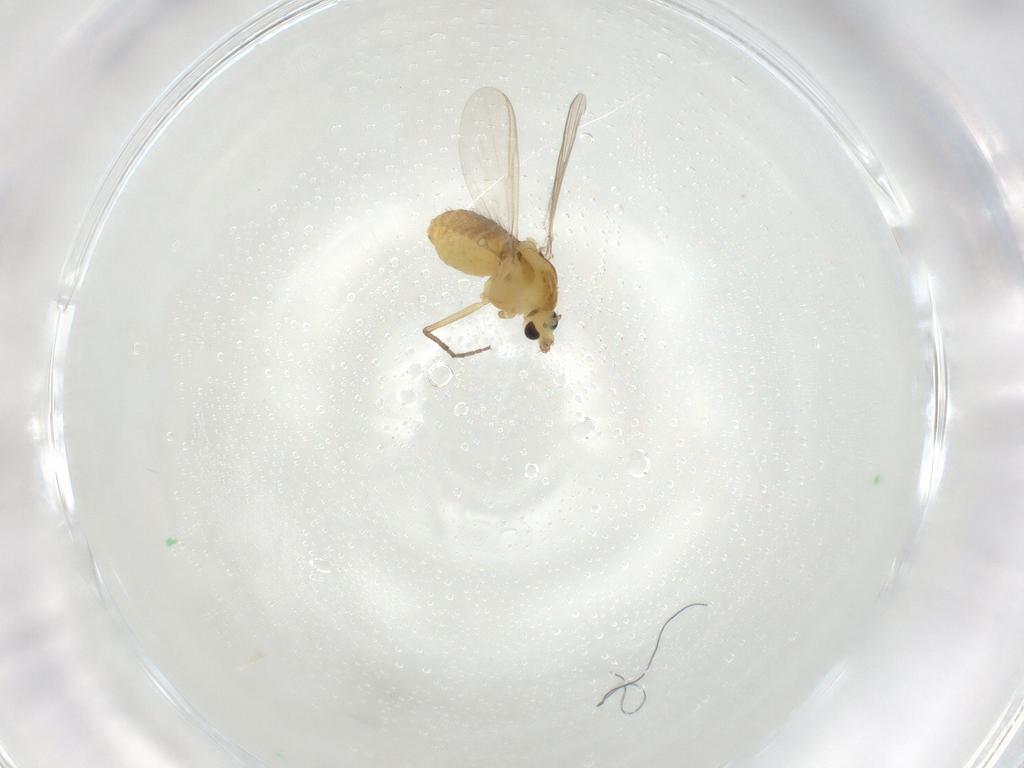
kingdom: Animalia
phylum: Arthropoda
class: Insecta
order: Diptera
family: Chironomidae
